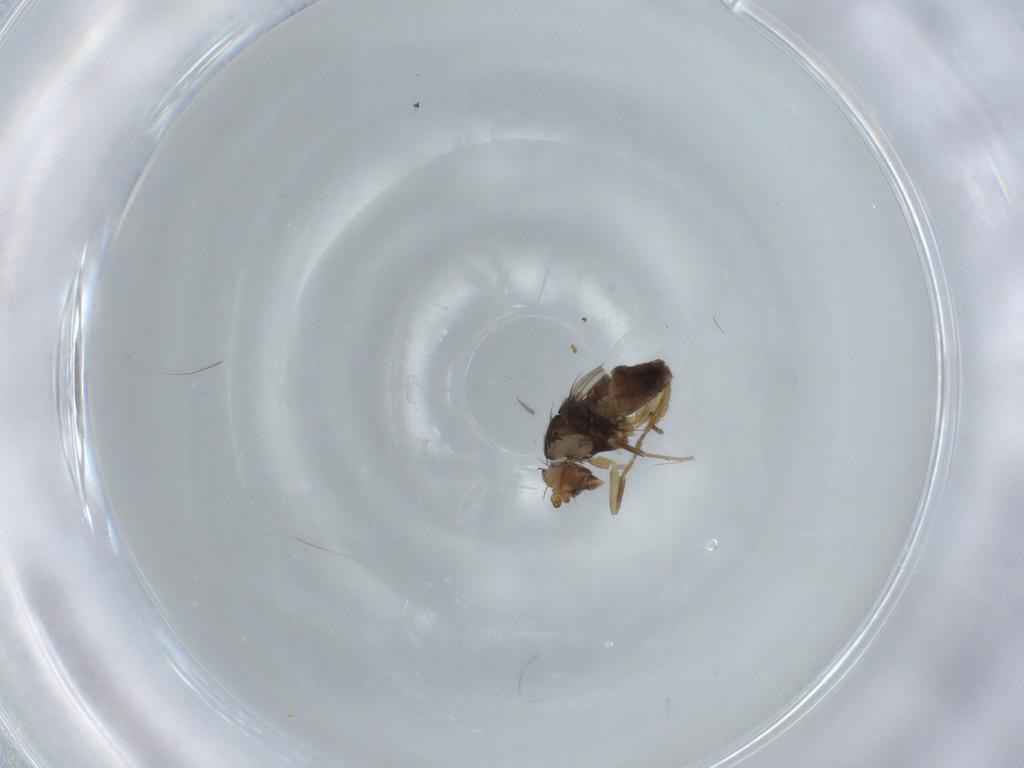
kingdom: Animalia
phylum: Arthropoda
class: Insecta
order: Diptera
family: Sphaeroceridae
